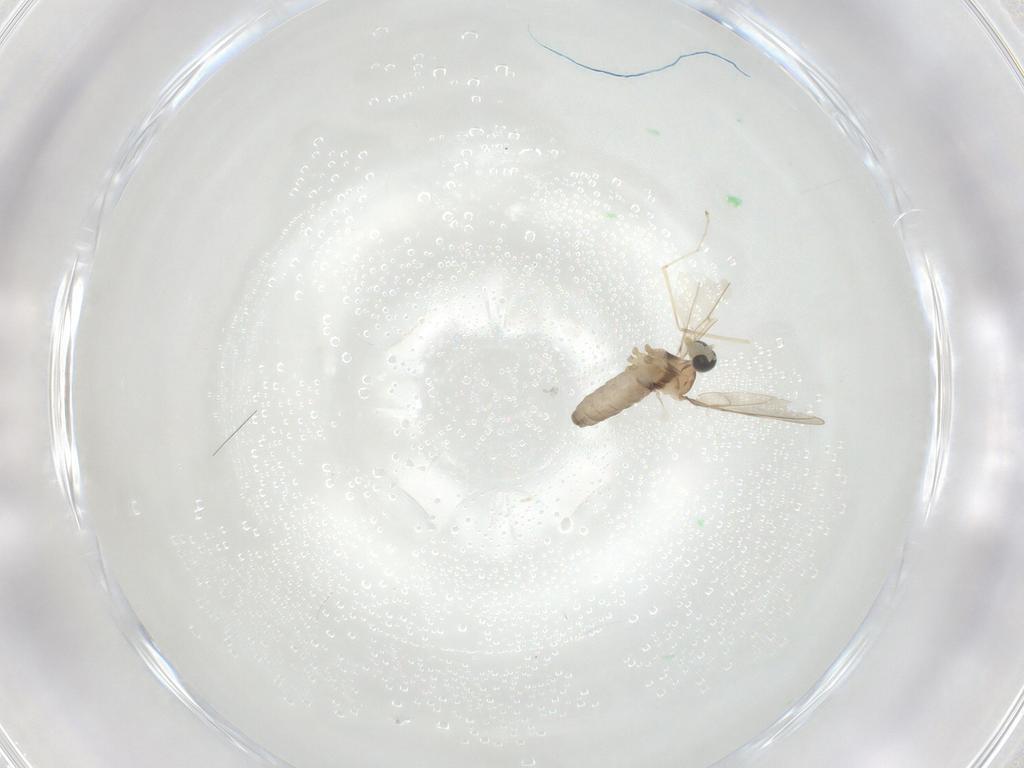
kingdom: Animalia
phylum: Arthropoda
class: Insecta
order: Diptera
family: Cecidomyiidae
